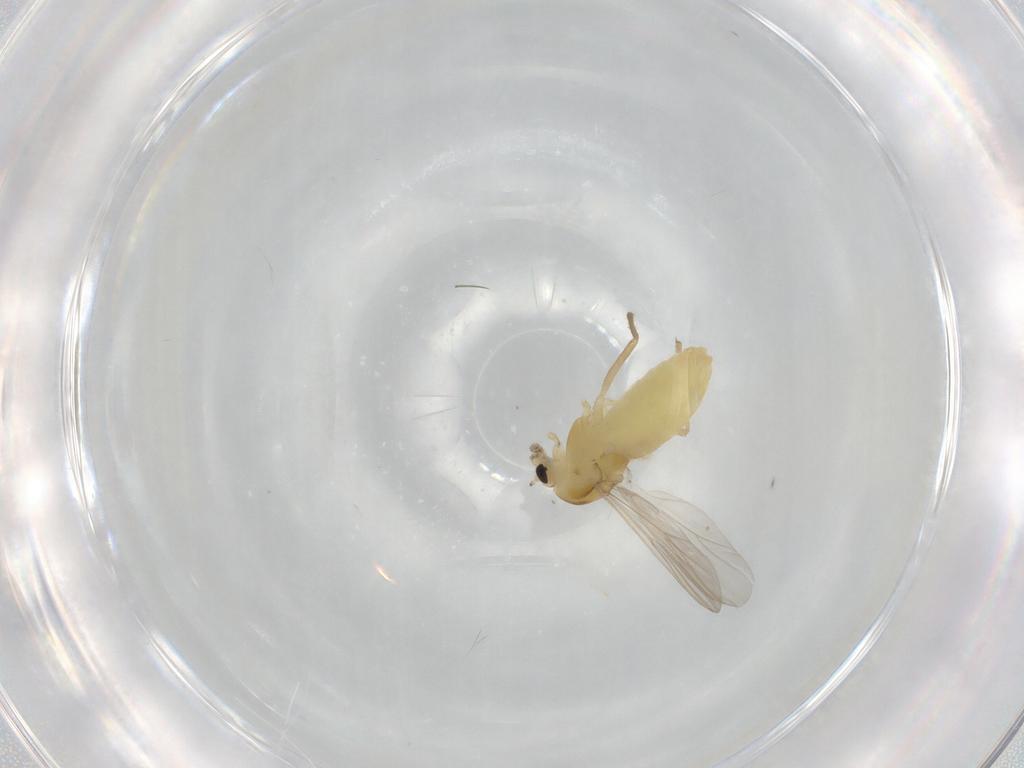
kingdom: Animalia
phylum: Arthropoda
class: Insecta
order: Diptera
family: Chironomidae
